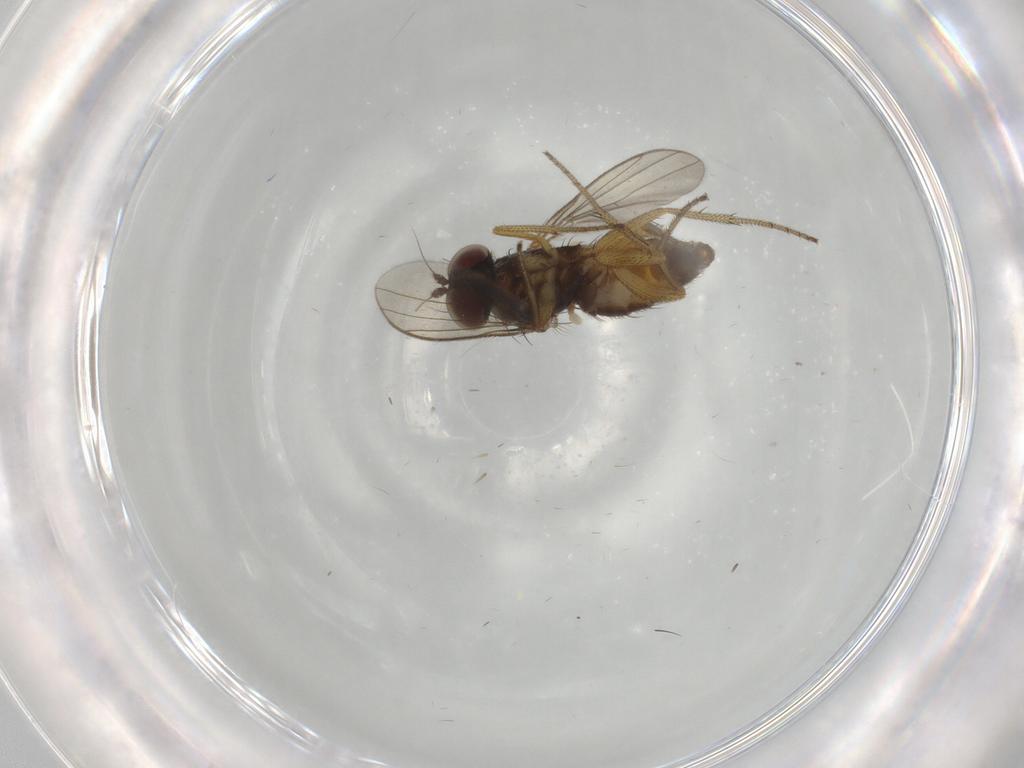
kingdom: Animalia
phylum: Arthropoda
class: Insecta
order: Diptera
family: Dolichopodidae
